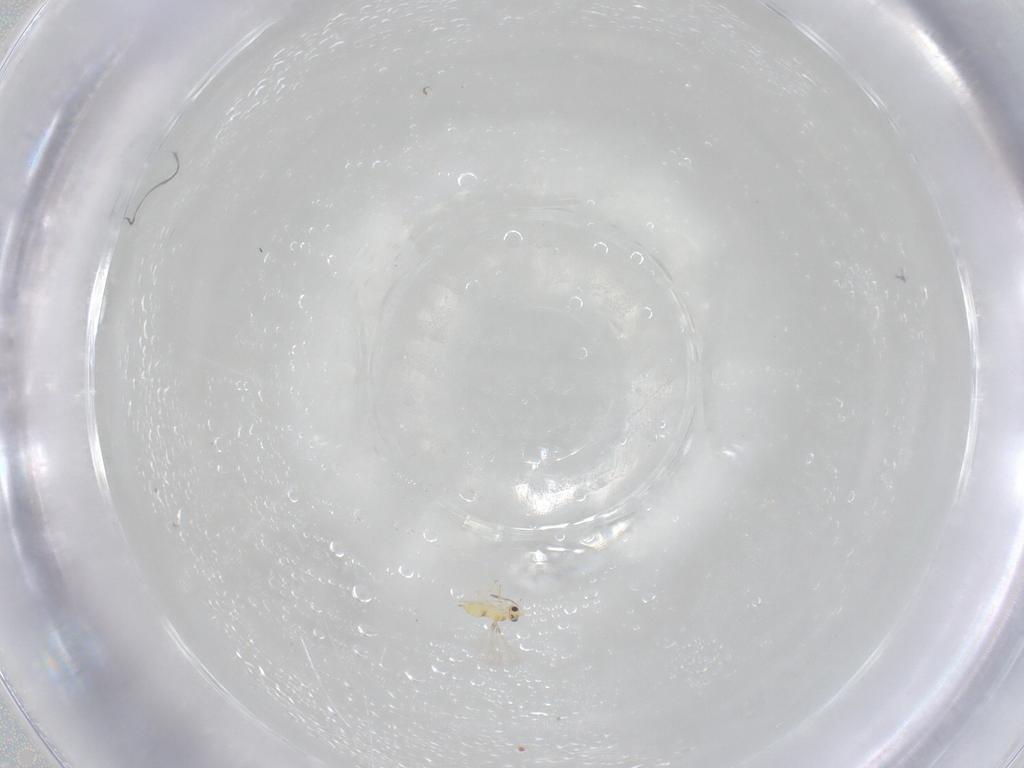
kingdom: Animalia
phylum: Arthropoda
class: Insecta
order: Hymenoptera
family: Mymaridae
